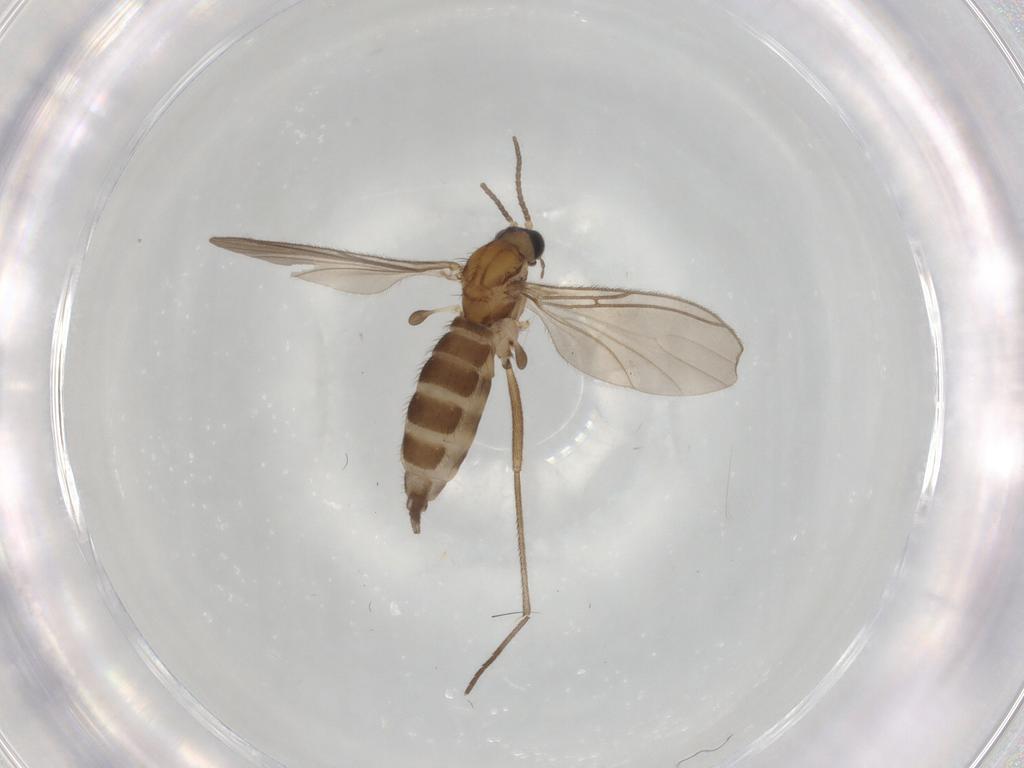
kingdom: Animalia
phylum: Arthropoda
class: Insecta
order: Diptera
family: Sciaridae
